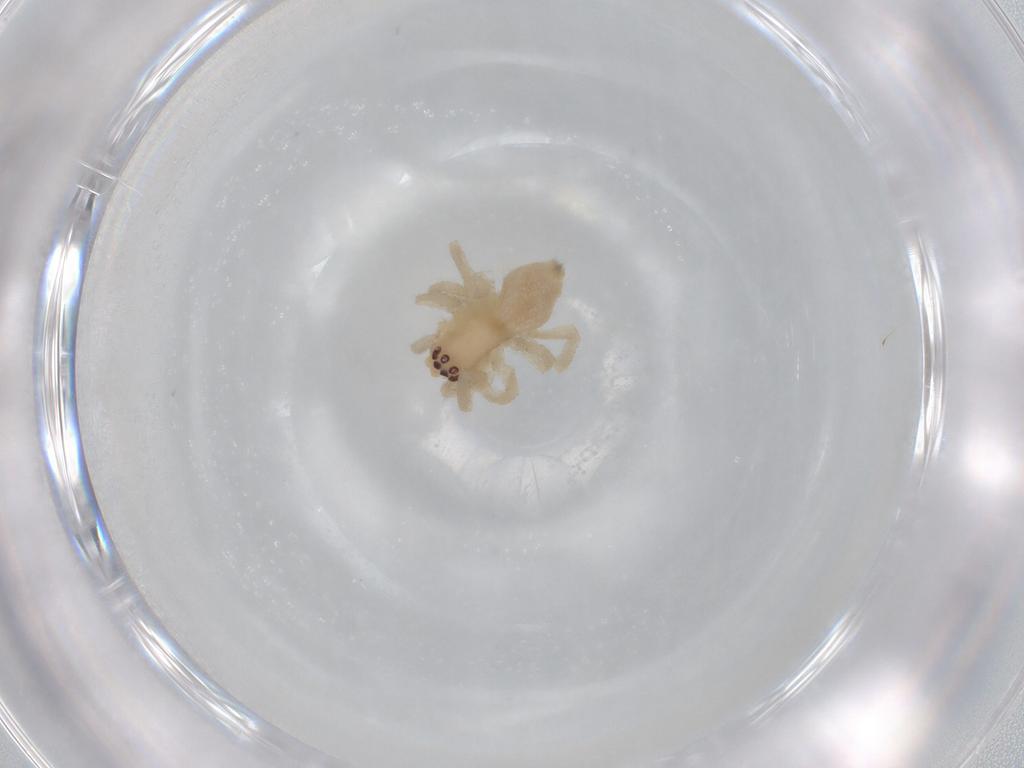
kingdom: Animalia
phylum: Arthropoda
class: Arachnida
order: Araneae
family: Cheiracanthiidae
